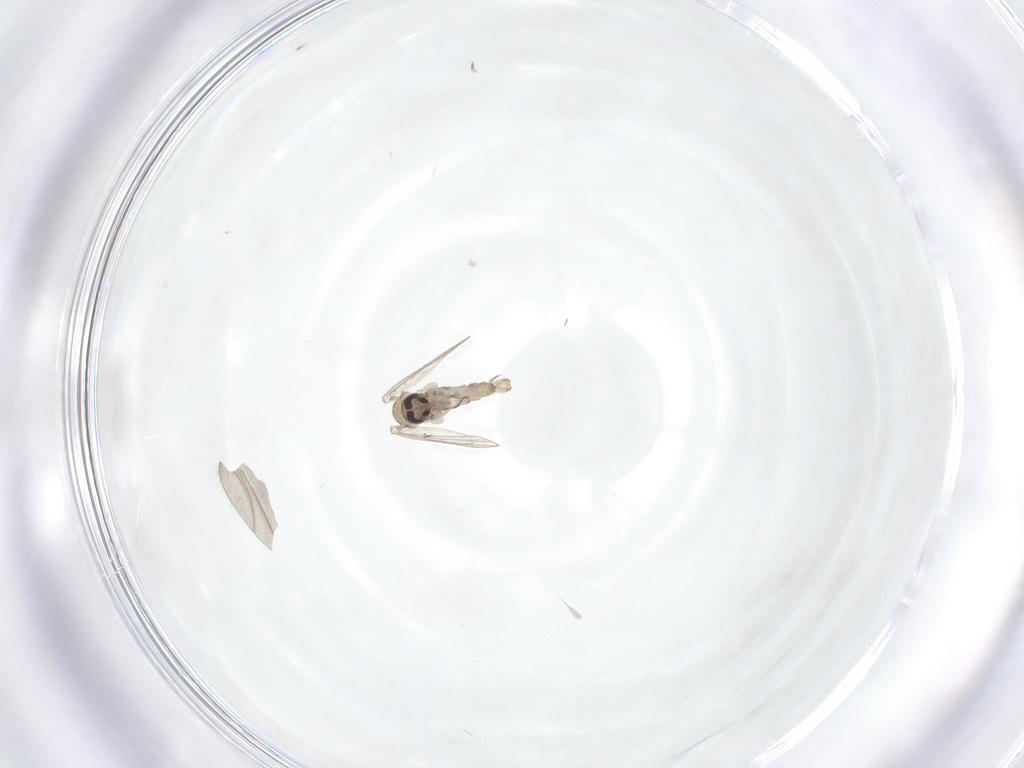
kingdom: Animalia
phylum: Arthropoda
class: Insecta
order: Diptera
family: Psychodidae
